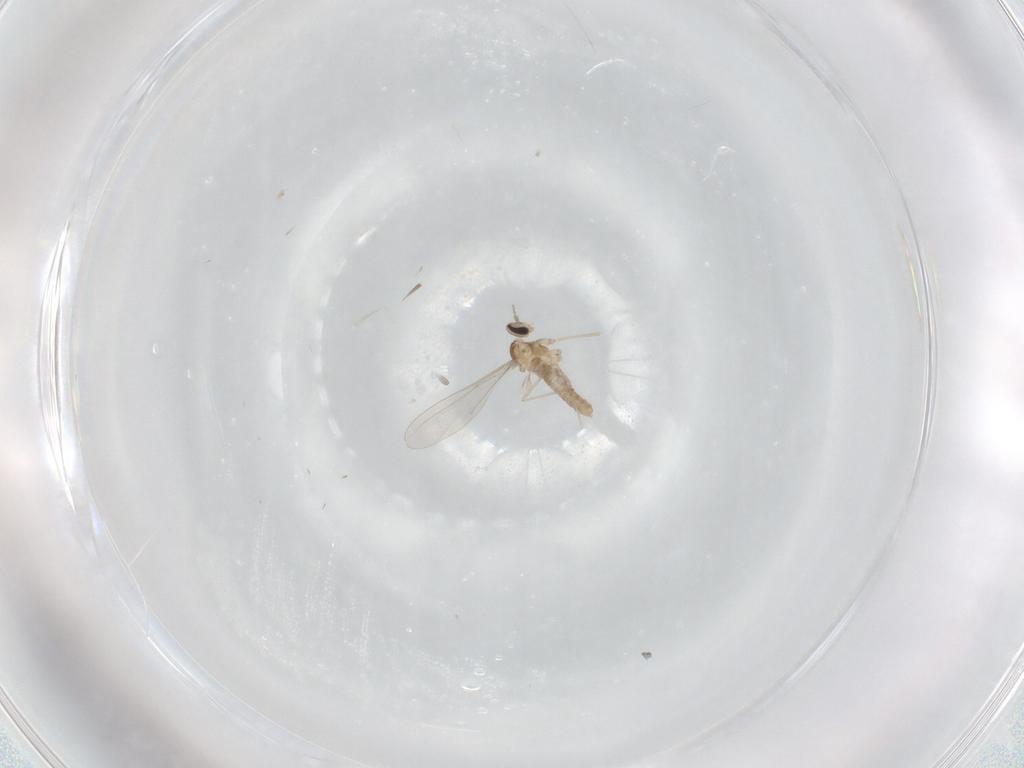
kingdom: Animalia
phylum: Arthropoda
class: Insecta
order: Diptera
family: Cecidomyiidae
